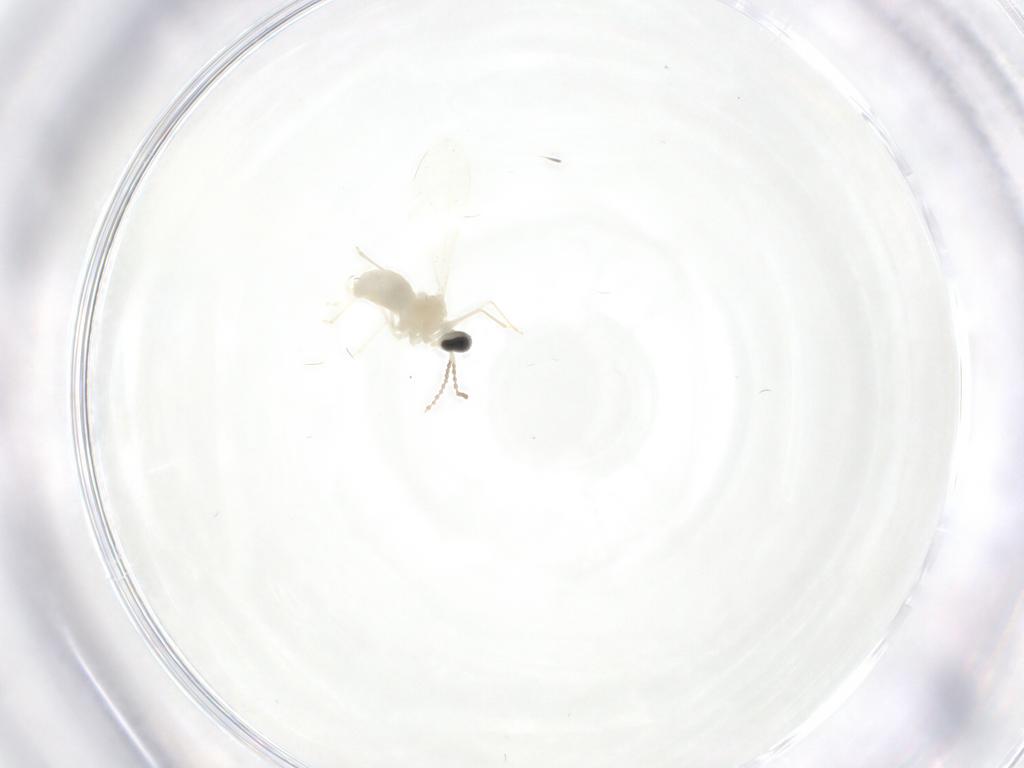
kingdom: Animalia
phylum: Arthropoda
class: Insecta
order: Diptera
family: Cecidomyiidae
